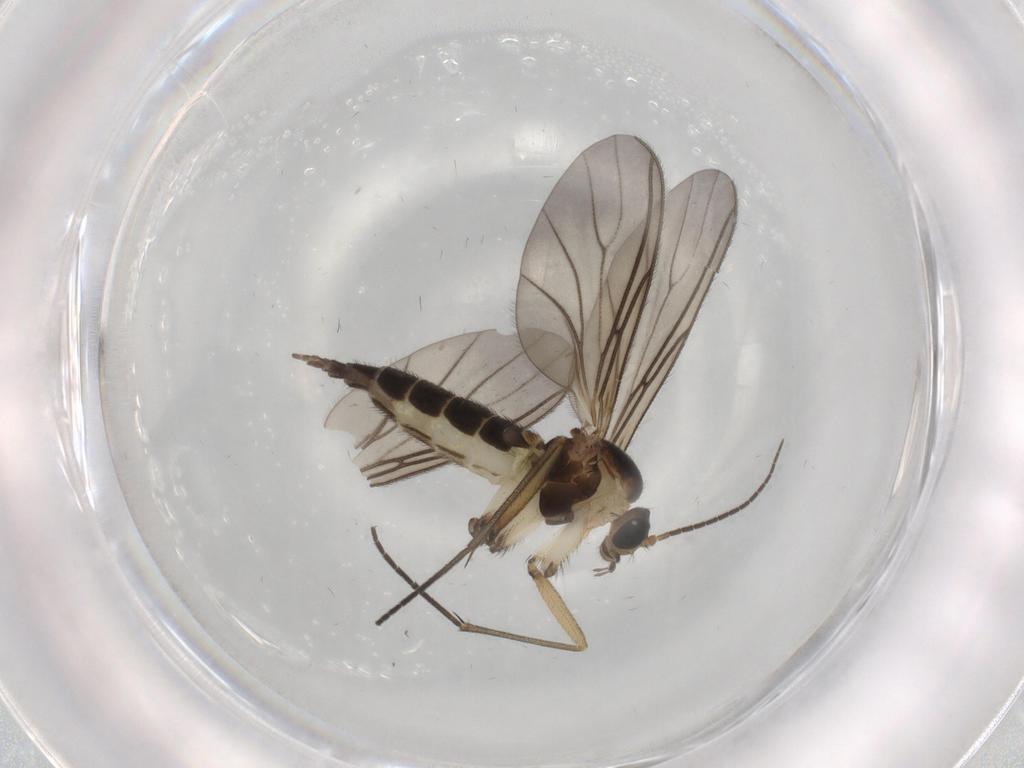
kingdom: Animalia
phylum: Arthropoda
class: Insecta
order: Diptera
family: Sciaridae
